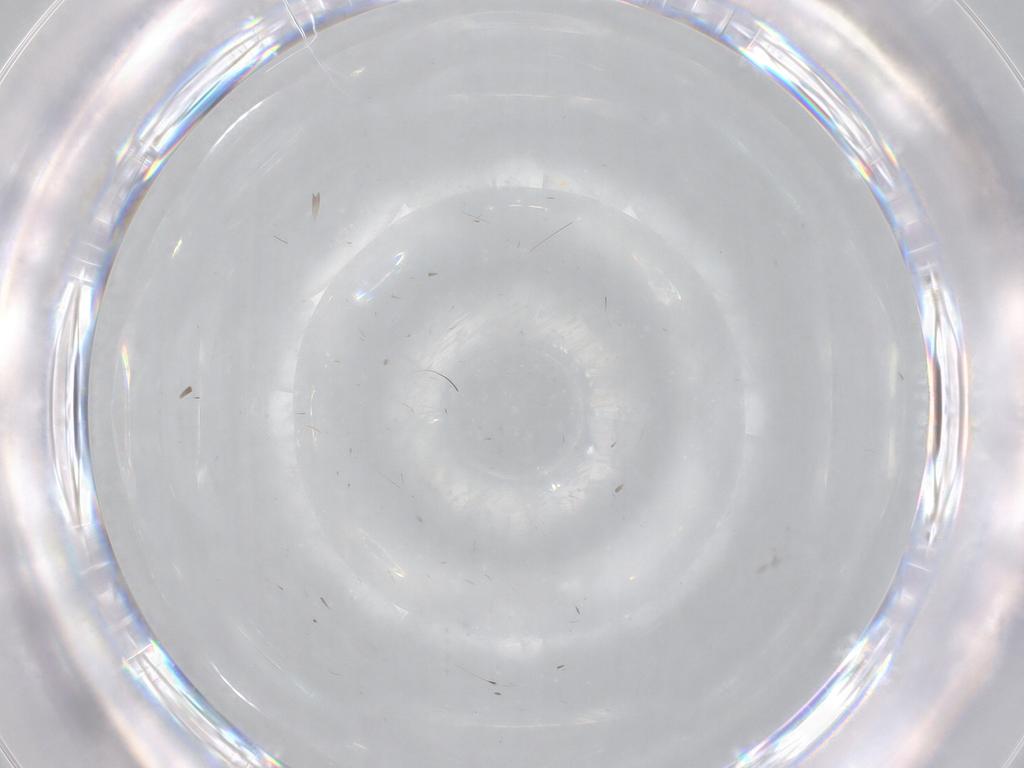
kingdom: Animalia
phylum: Arthropoda
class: Insecta
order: Diptera
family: Psychodidae
